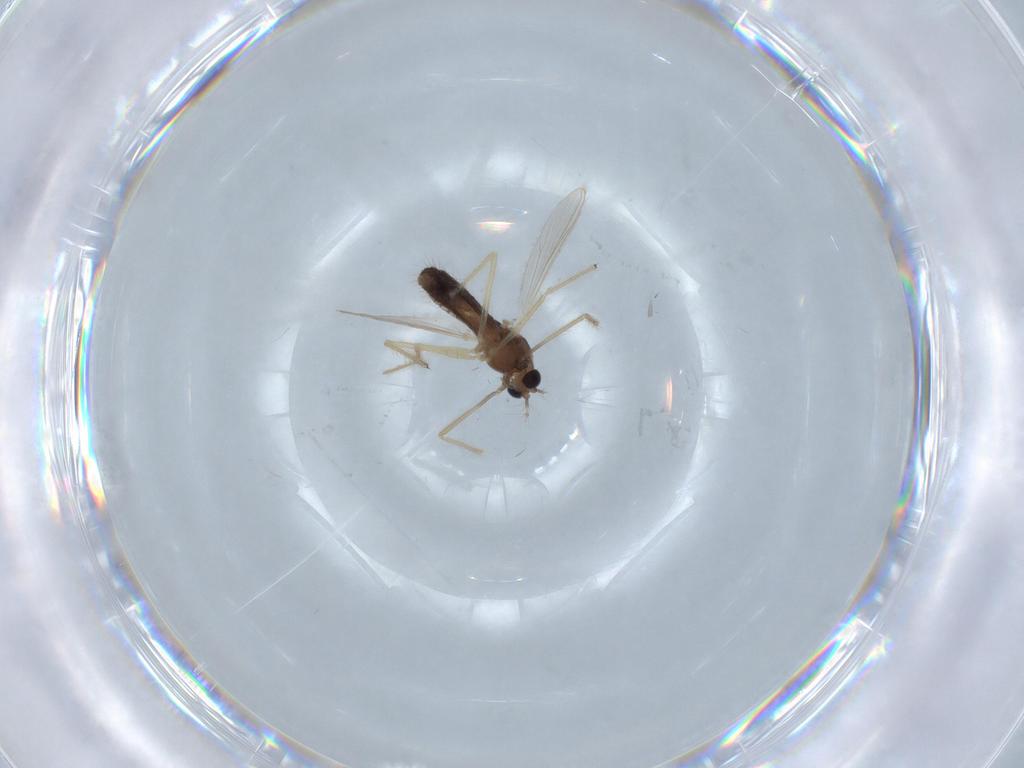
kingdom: Animalia
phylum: Arthropoda
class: Insecta
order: Diptera
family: Chironomidae
